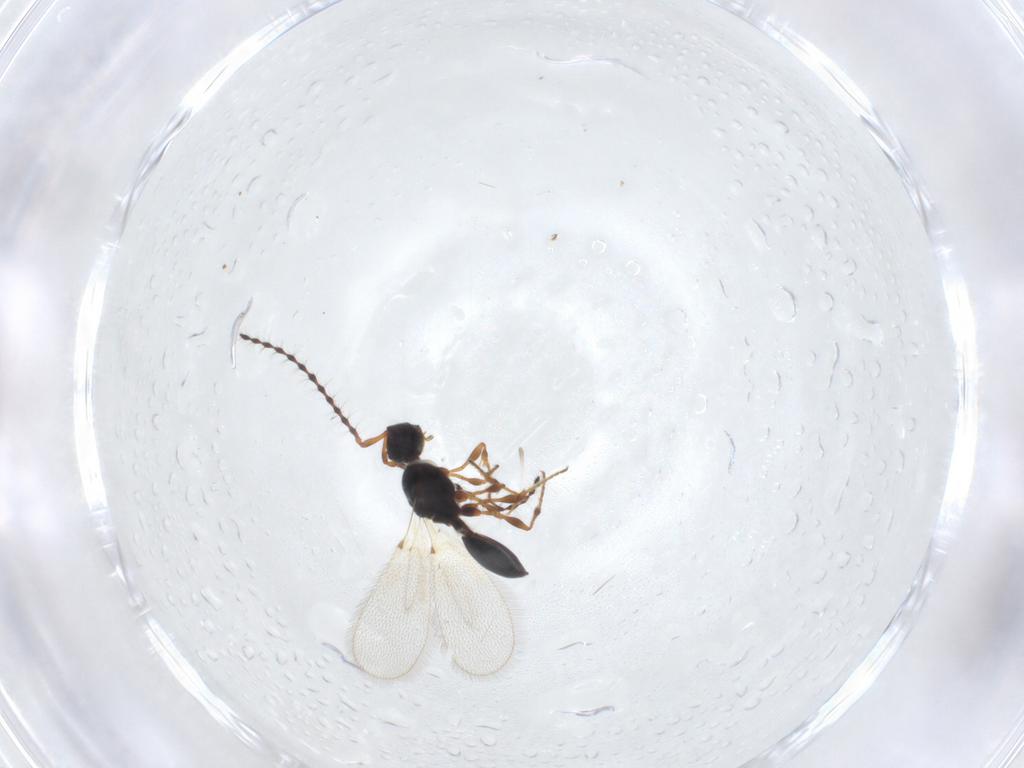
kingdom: Animalia
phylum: Arthropoda
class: Insecta
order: Hymenoptera
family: Diapriidae
